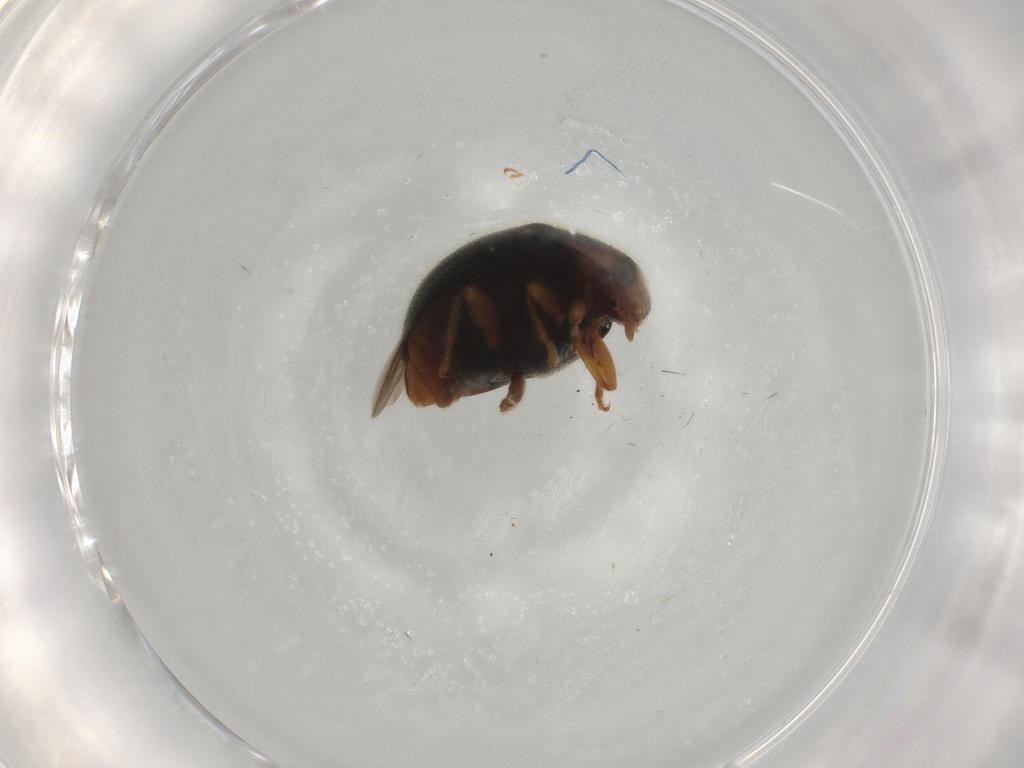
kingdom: Animalia
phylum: Arthropoda
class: Insecta
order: Coleoptera
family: Coccinellidae
